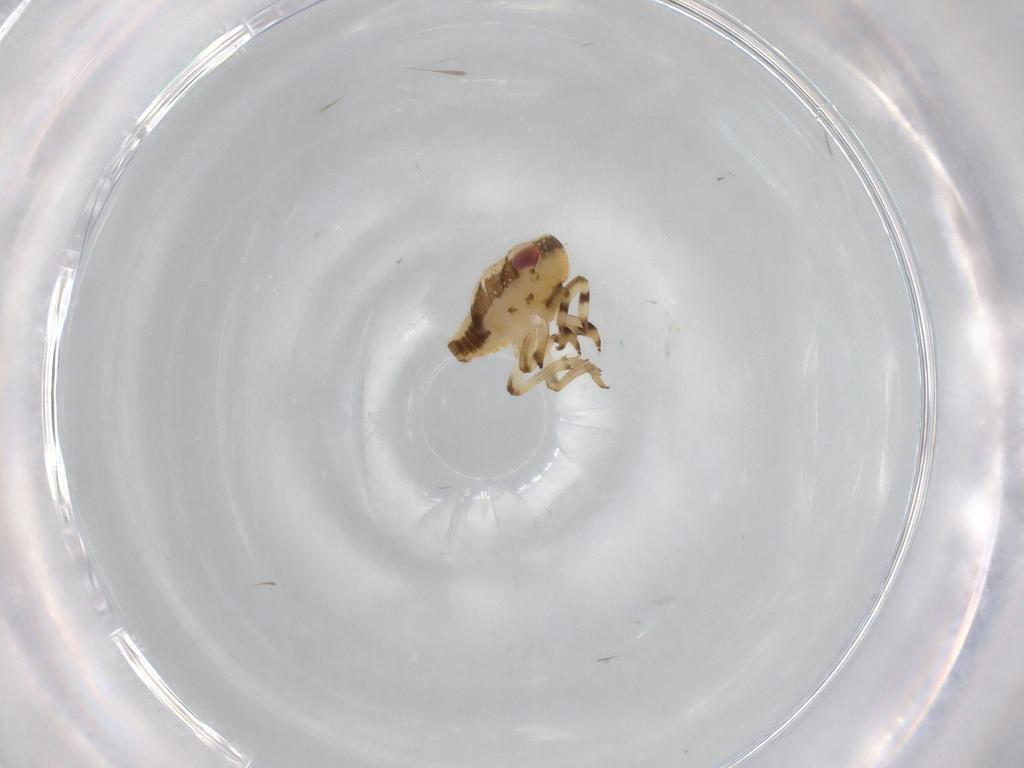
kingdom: Animalia
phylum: Arthropoda
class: Insecta
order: Hemiptera
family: Issidae
